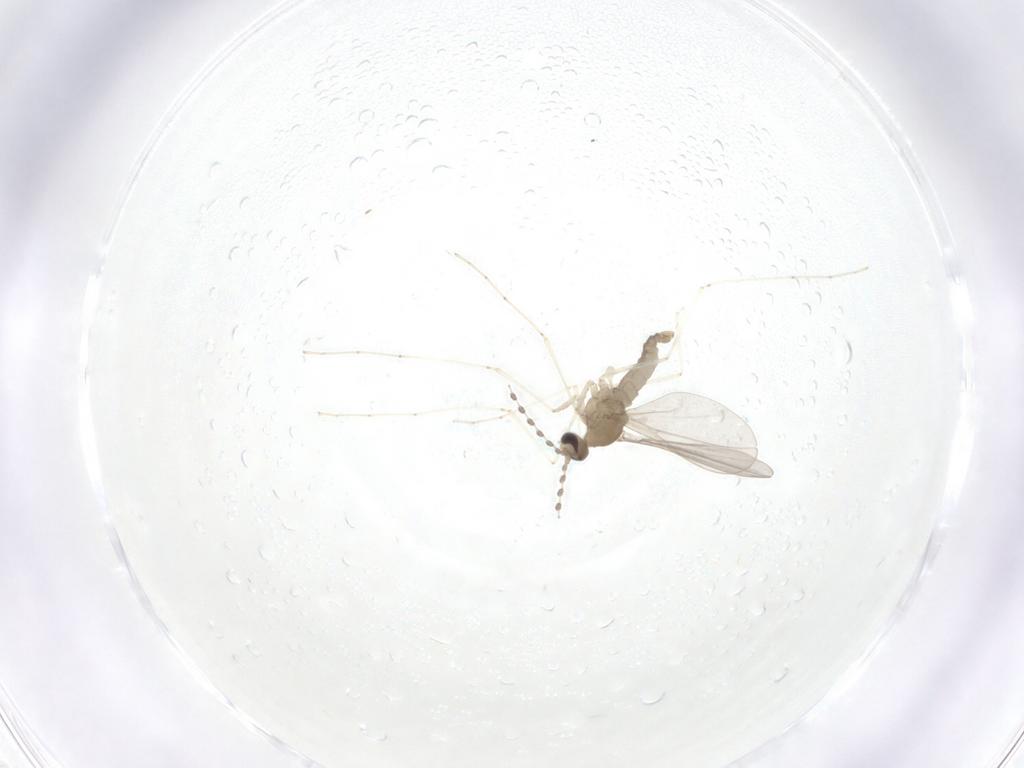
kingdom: Animalia
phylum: Arthropoda
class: Insecta
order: Diptera
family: Cecidomyiidae
